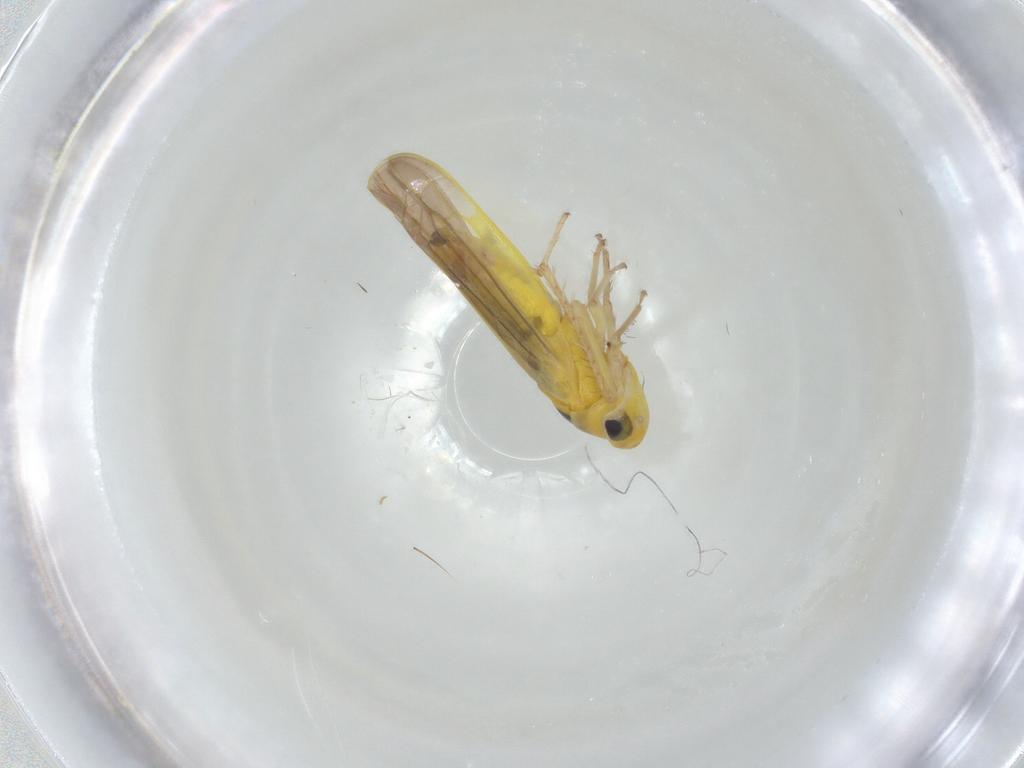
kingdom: Animalia
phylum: Arthropoda
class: Insecta
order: Hemiptera
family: Cicadellidae
